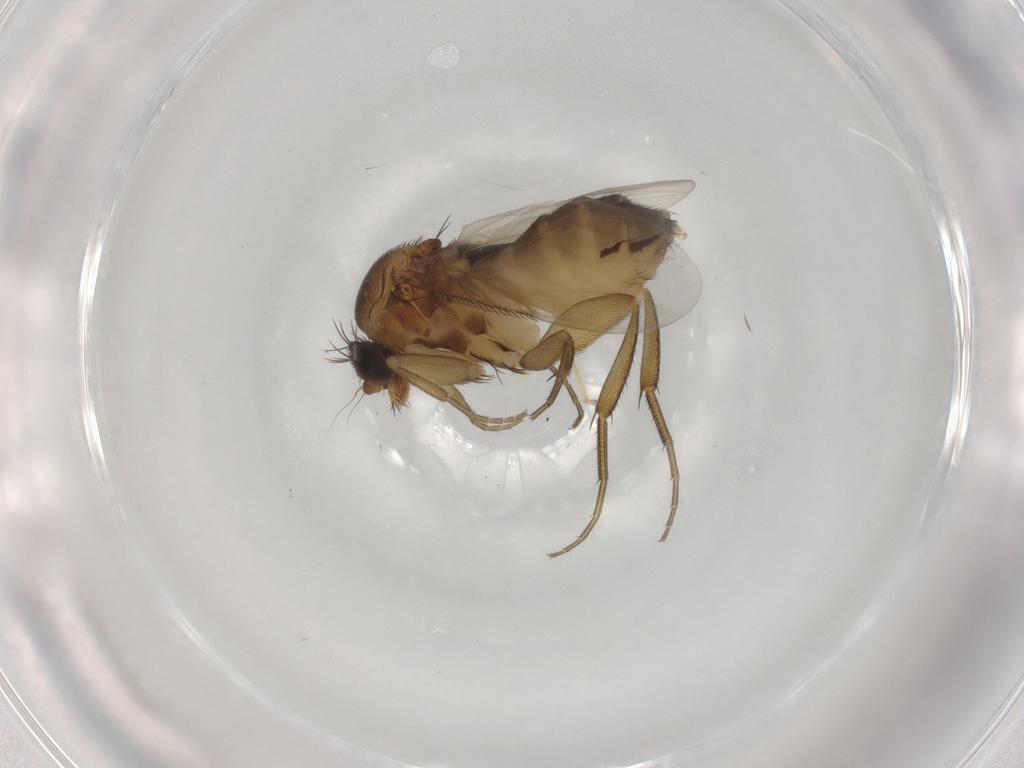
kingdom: Animalia
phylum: Arthropoda
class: Insecta
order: Diptera
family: Phoridae
